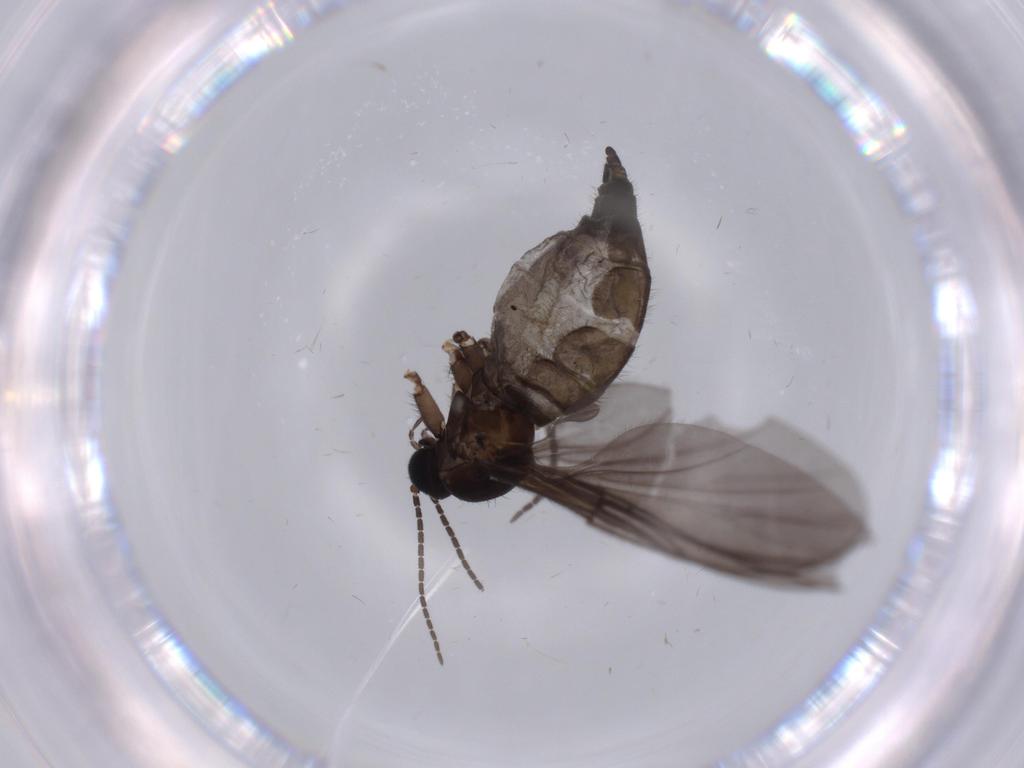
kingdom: Animalia
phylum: Arthropoda
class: Insecta
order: Diptera
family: Sciaridae
